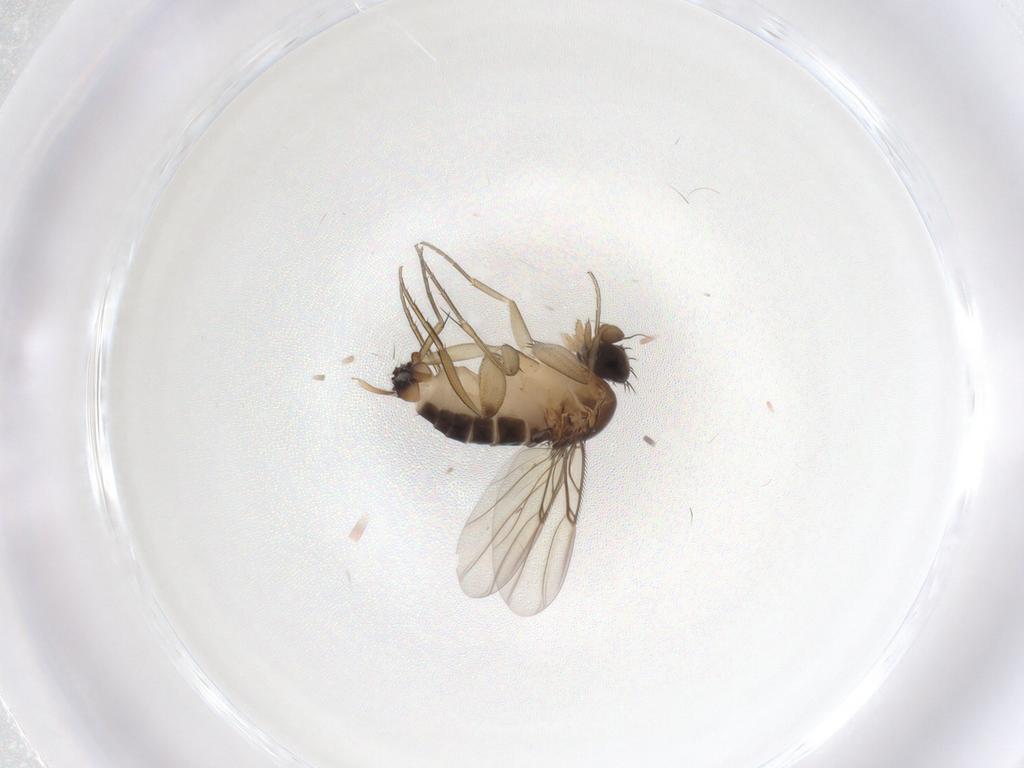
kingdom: Animalia
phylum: Arthropoda
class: Insecta
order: Diptera
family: Phoridae
